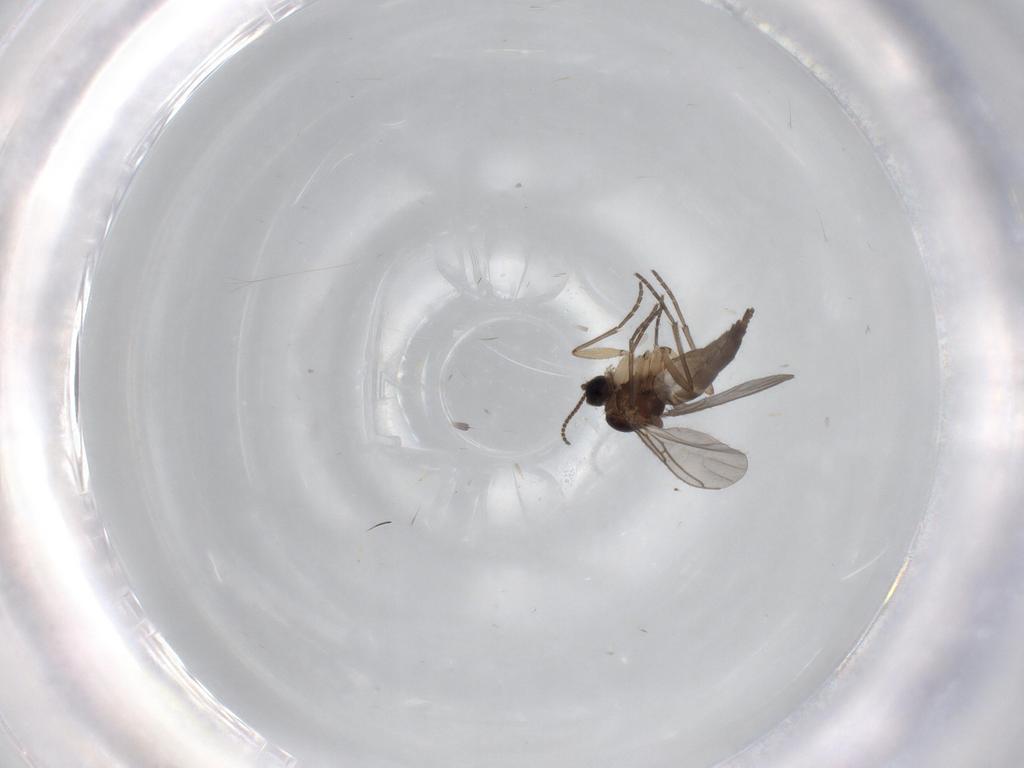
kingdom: Animalia
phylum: Arthropoda
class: Insecta
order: Diptera
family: Sciaridae
